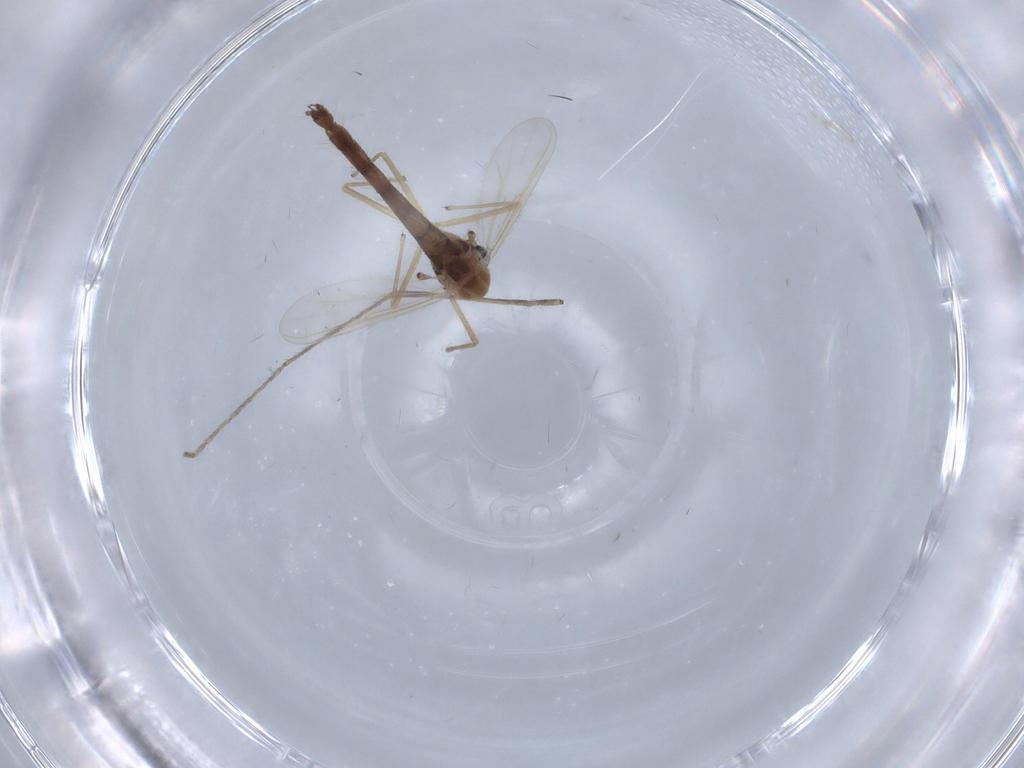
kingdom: Animalia
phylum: Arthropoda
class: Insecta
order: Diptera
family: Chironomidae
